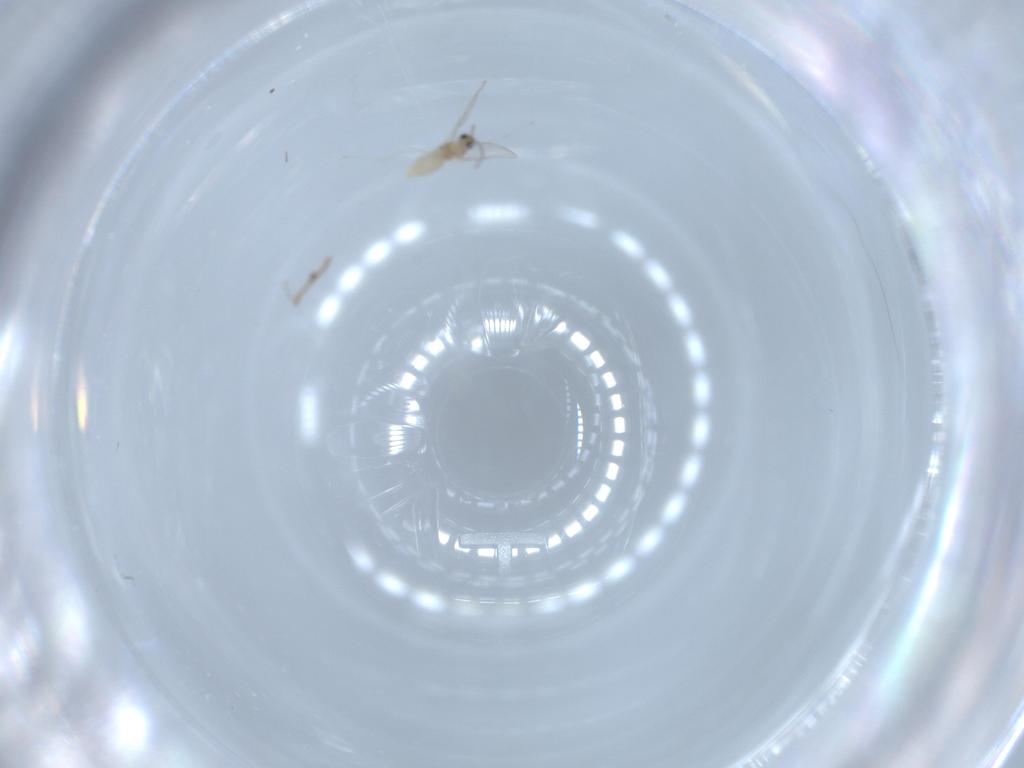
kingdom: Animalia
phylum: Arthropoda
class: Insecta
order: Diptera
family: Cecidomyiidae
